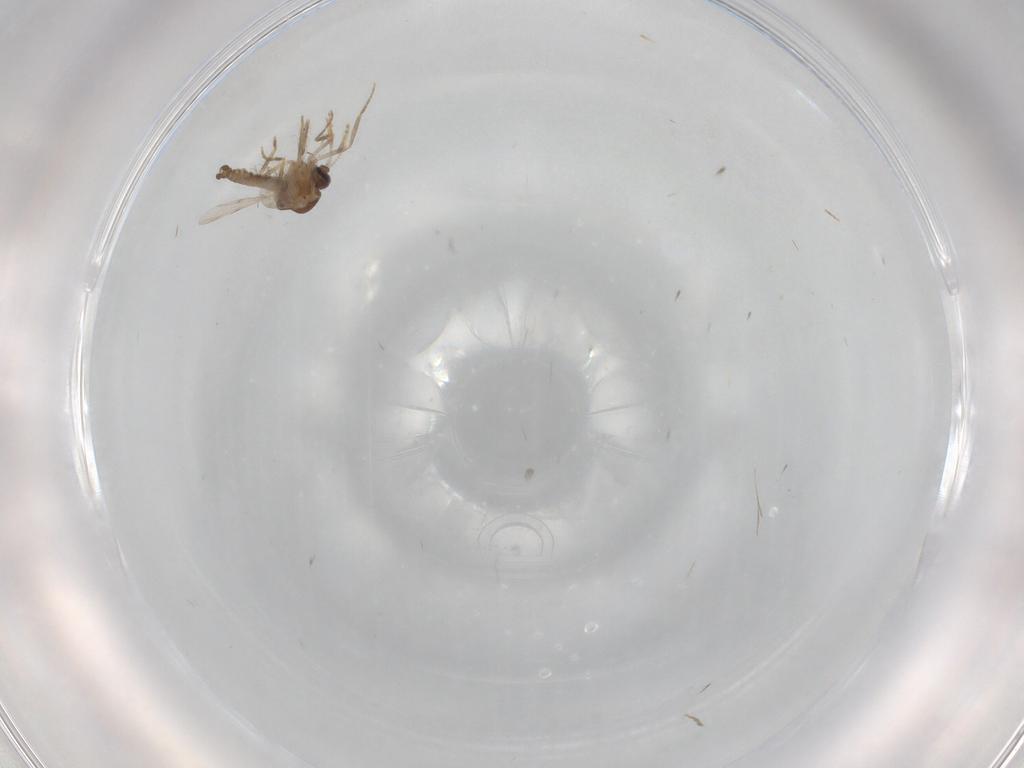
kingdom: Animalia
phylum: Arthropoda
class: Insecta
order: Diptera
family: Ceratopogonidae
